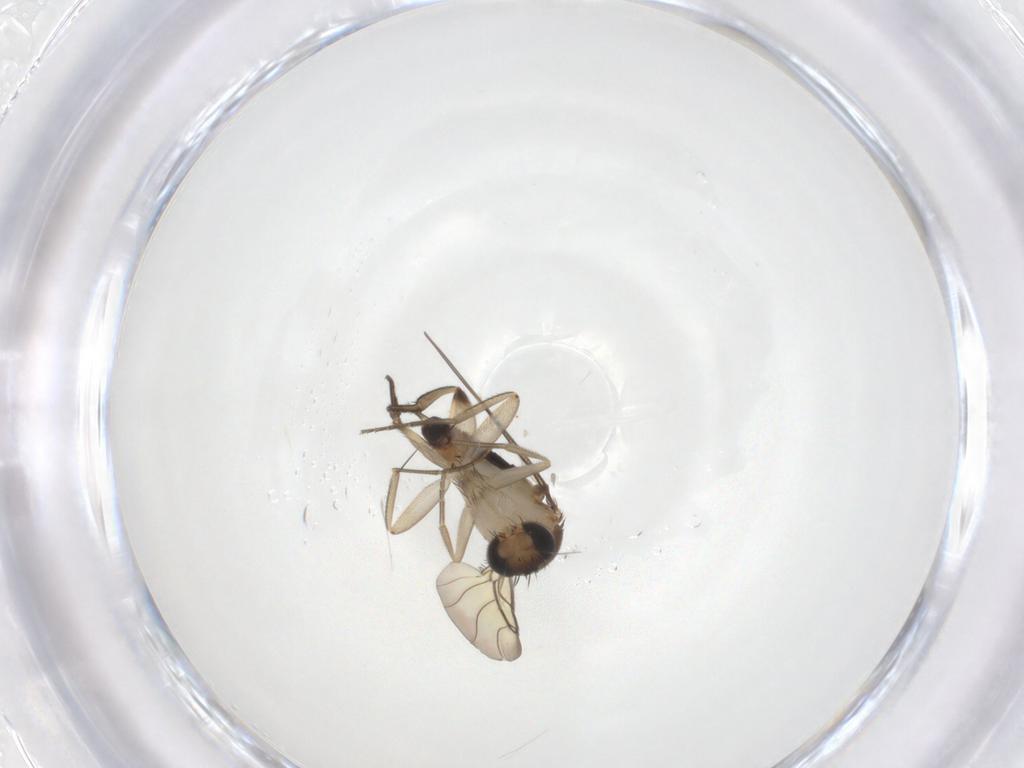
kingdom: Animalia
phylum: Arthropoda
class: Insecta
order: Diptera
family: Phoridae
